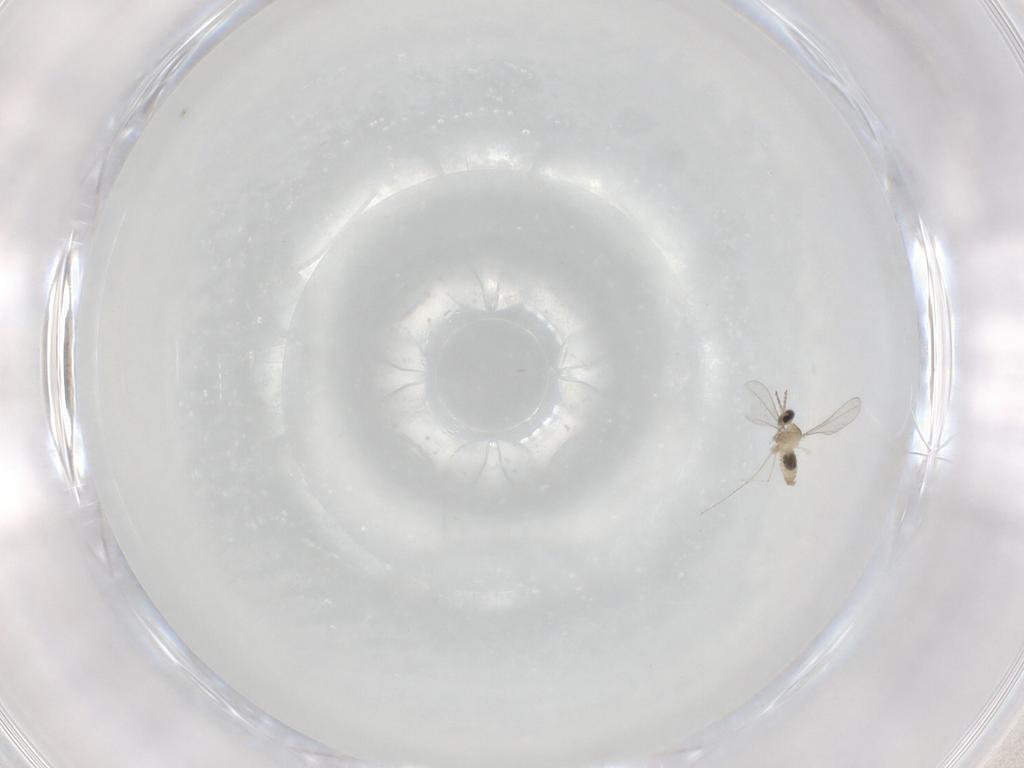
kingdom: Animalia
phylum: Arthropoda
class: Insecta
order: Diptera
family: Cecidomyiidae
